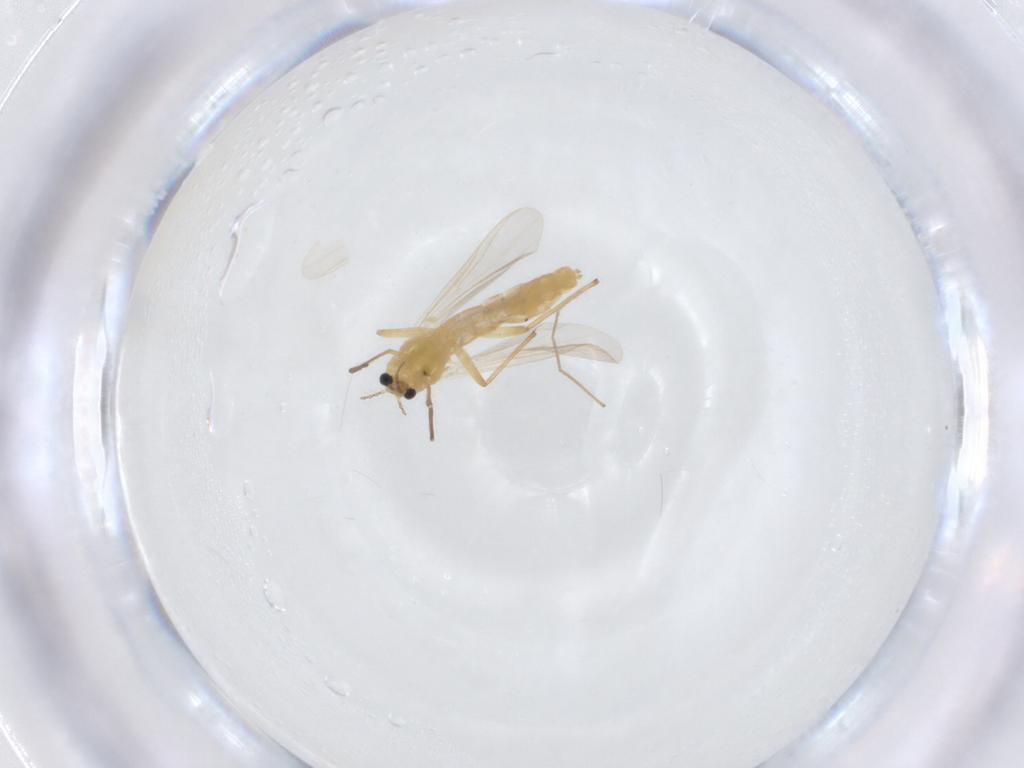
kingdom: Animalia
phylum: Arthropoda
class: Insecta
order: Diptera
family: Chironomidae
